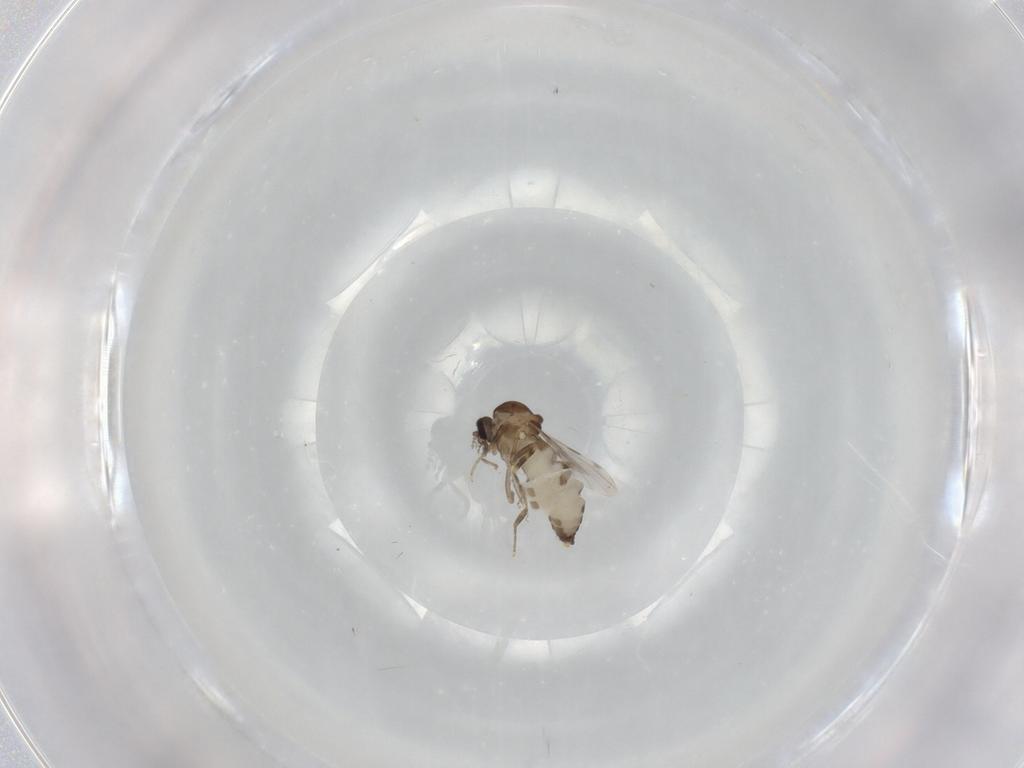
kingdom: Animalia
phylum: Arthropoda
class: Insecta
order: Diptera
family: Ceratopogonidae
